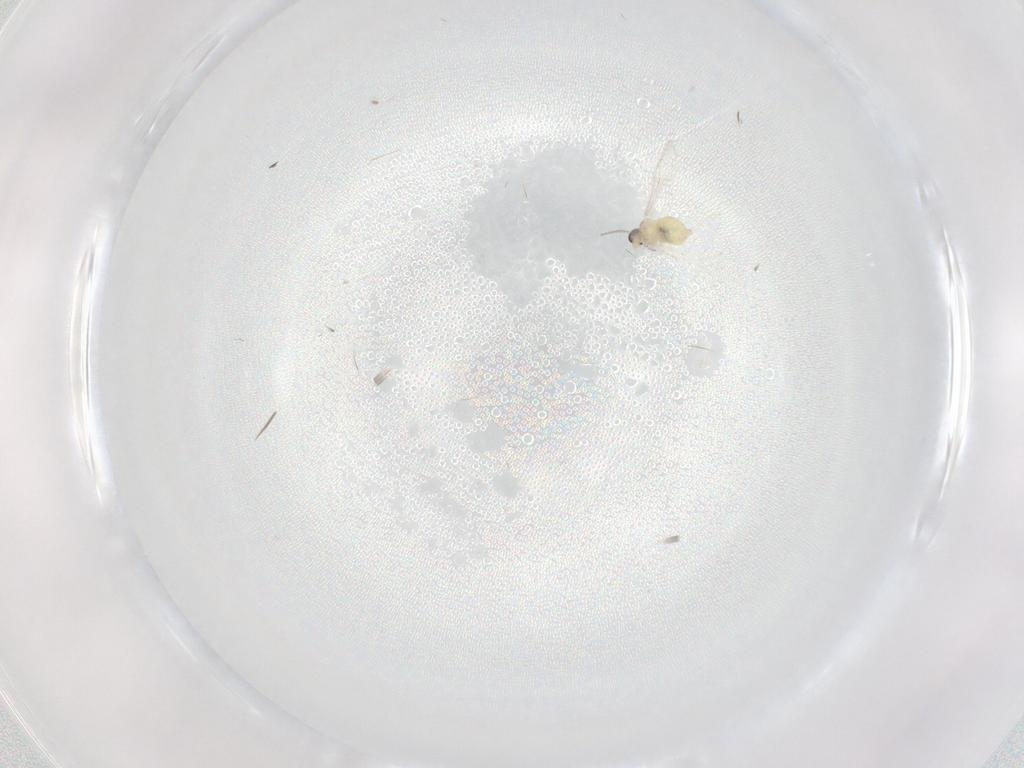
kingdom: Animalia
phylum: Arthropoda
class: Insecta
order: Diptera
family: Cecidomyiidae
